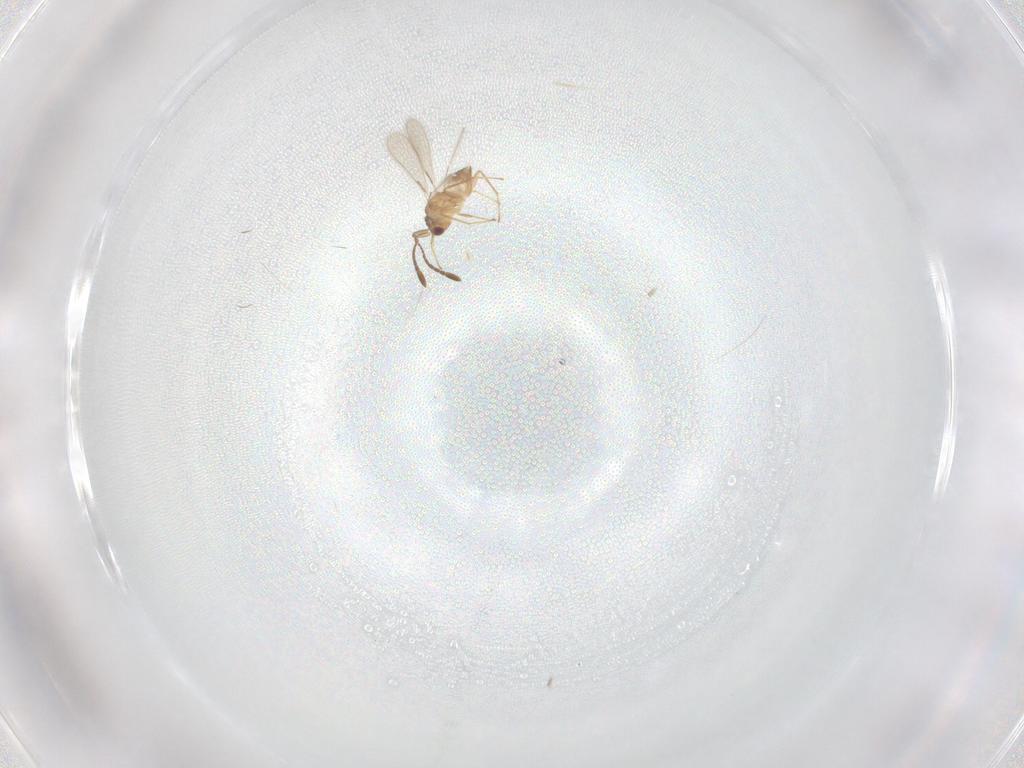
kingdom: Animalia
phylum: Arthropoda
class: Insecta
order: Hymenoptera
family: Mymaridae
